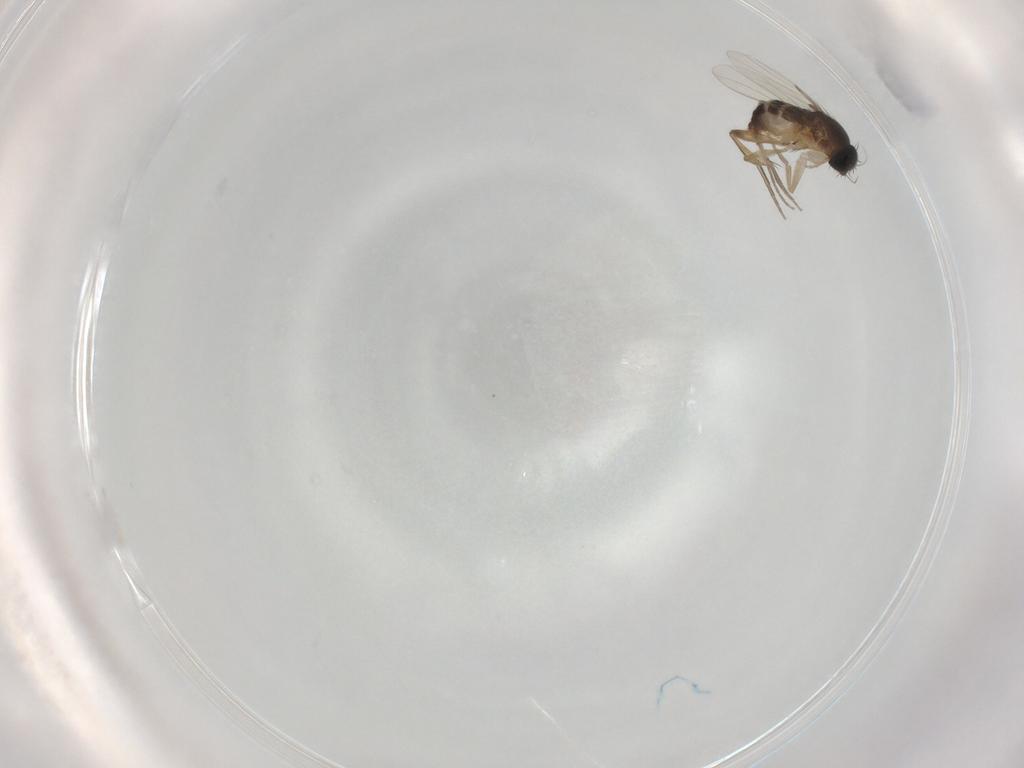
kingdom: Animalia
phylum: Arthropoda
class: Insecta
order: Diptera
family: Phoridae
